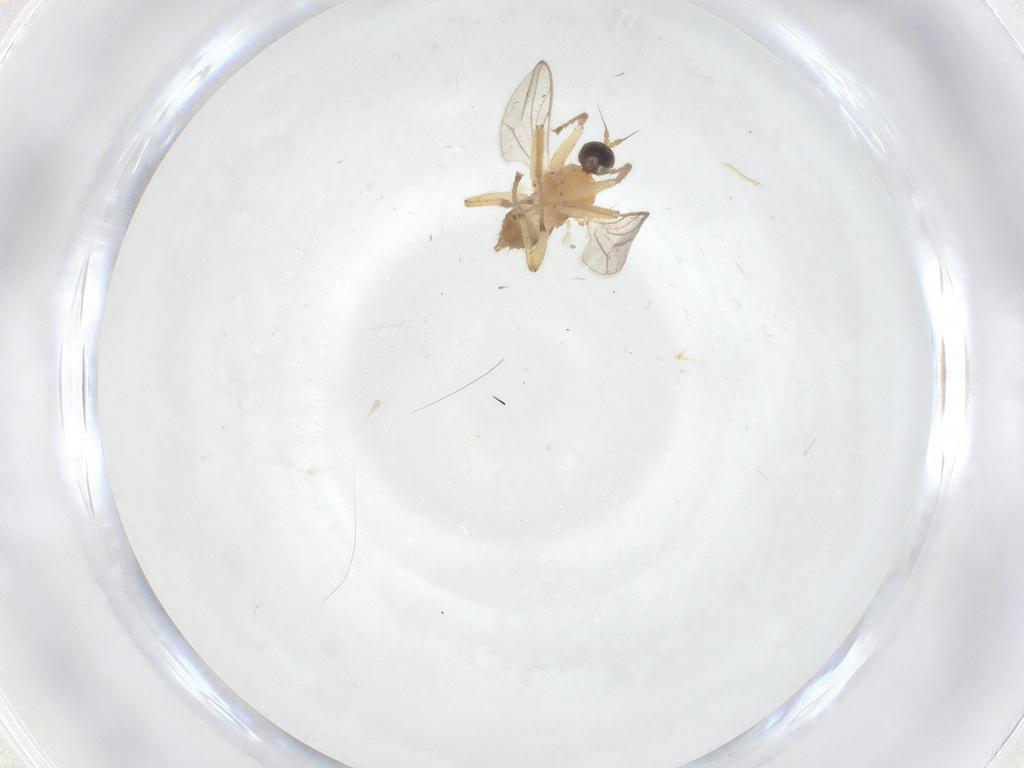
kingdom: Animalia
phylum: Arthropoda
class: Insecta
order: Diptera
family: Hybotidae
